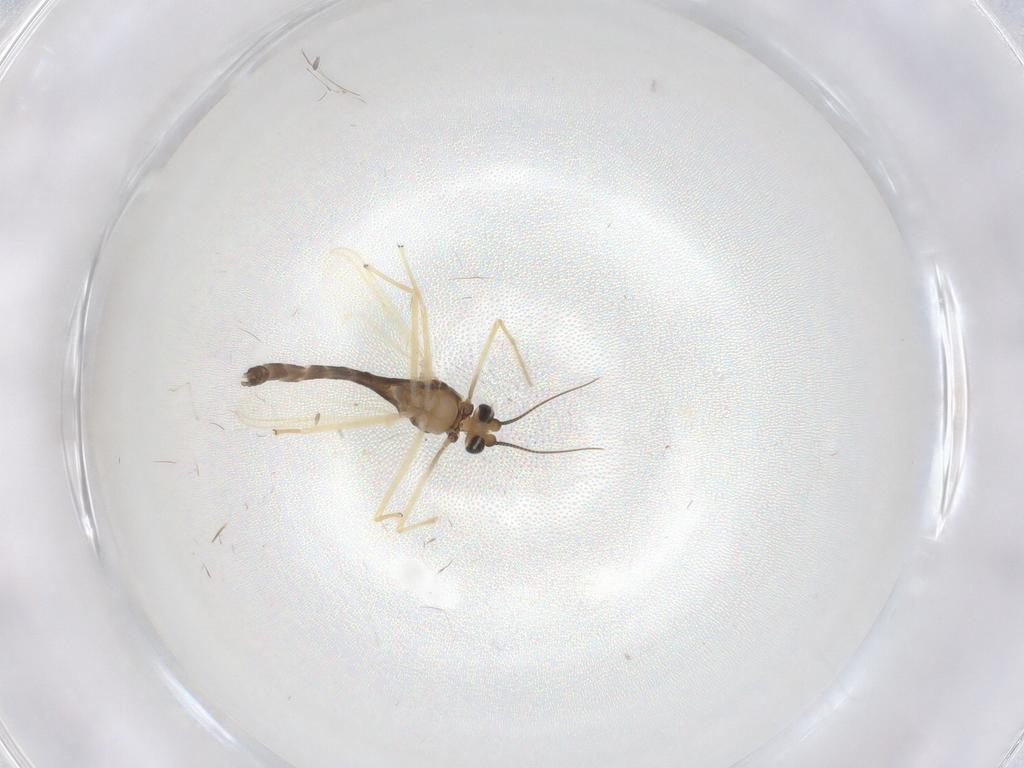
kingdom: Animalia
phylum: Arthropoda
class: Insecta
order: Diptera
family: Chironomidae
